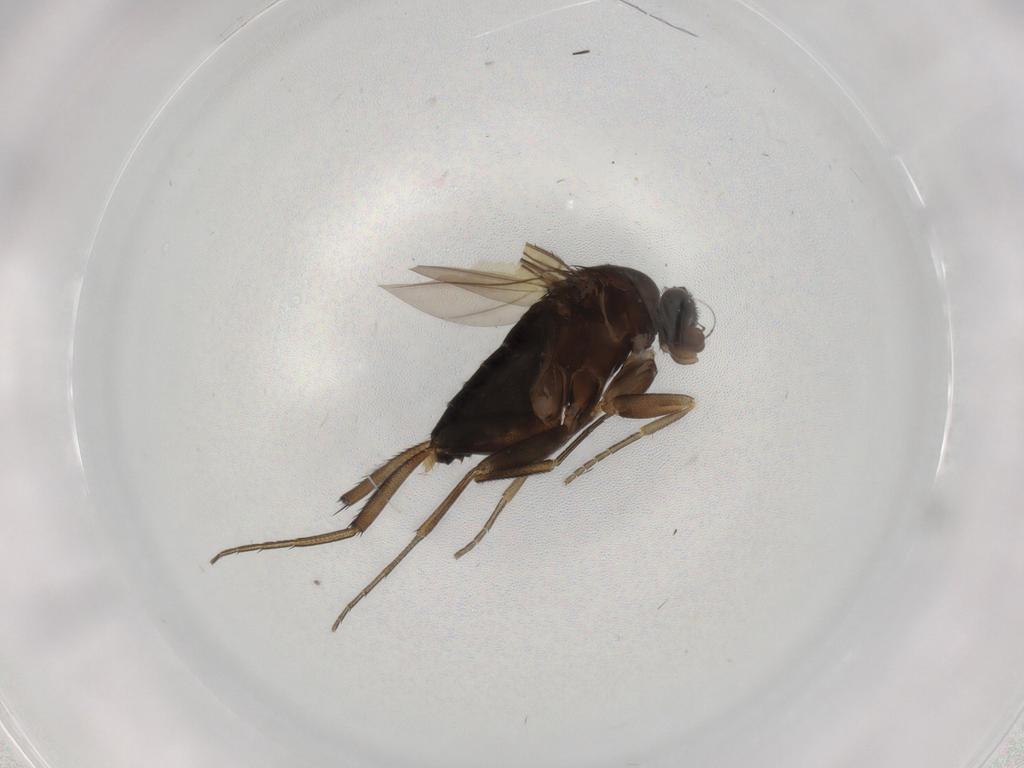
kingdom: Animalia
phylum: Arthropoda
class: Insecta
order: Diptera
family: Phoridae
